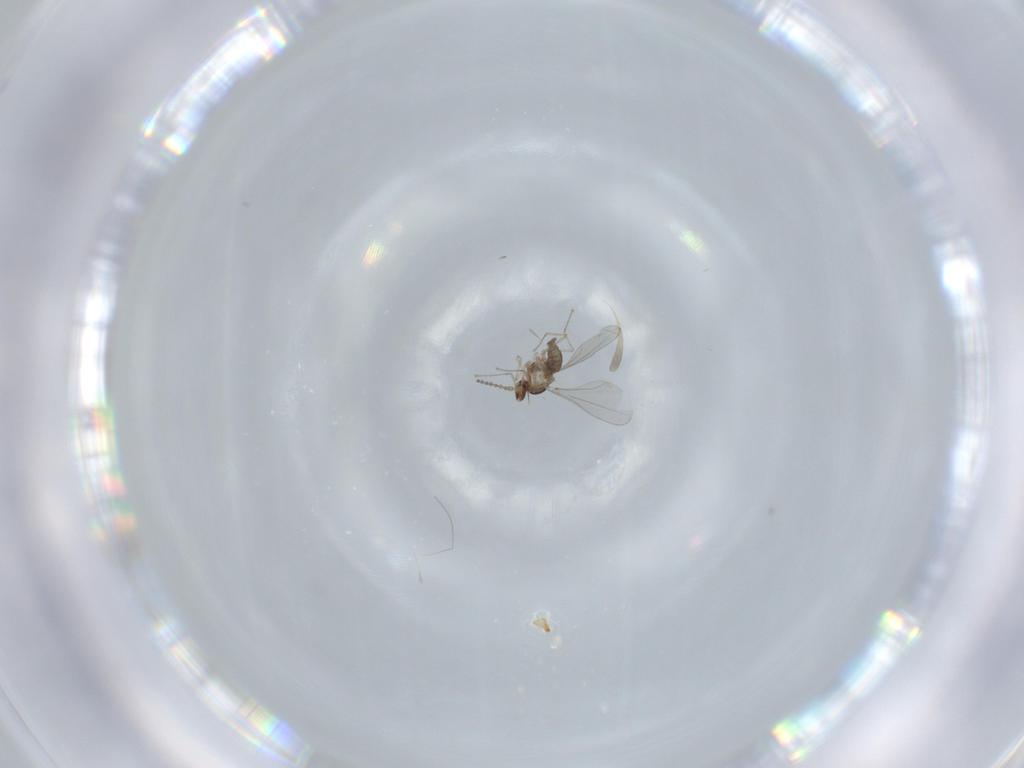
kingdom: Animalia
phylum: Arthropoda
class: Insecta
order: Diptera
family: Cecidomyiidae
